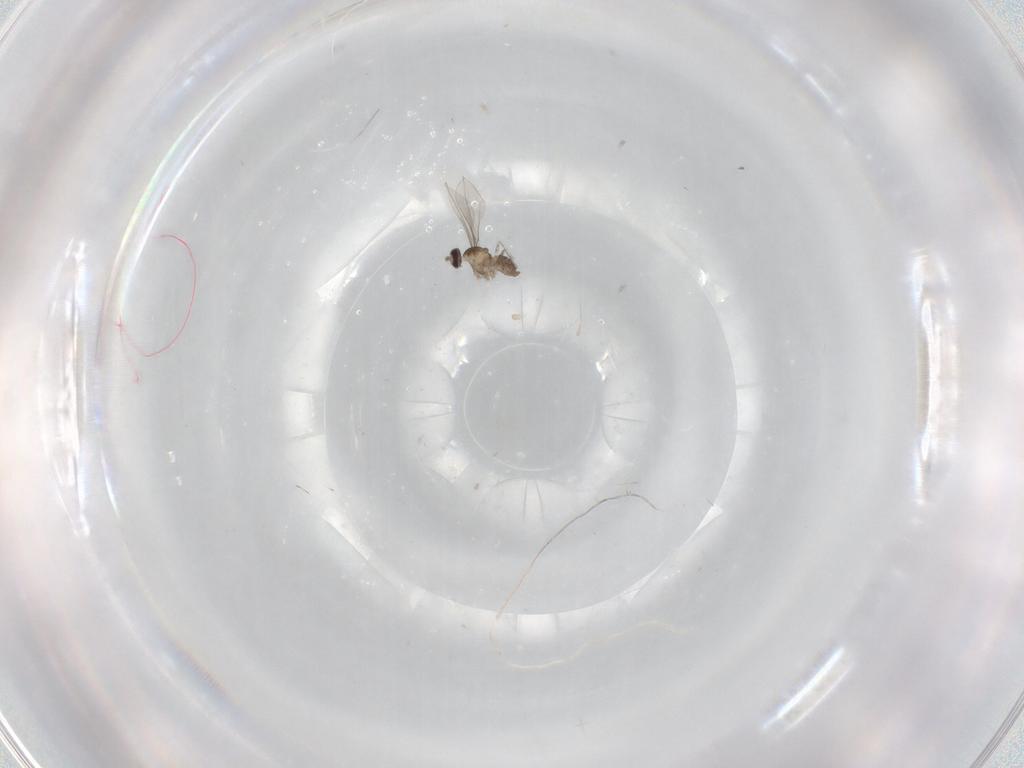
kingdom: Animalia
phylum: Arthropoda
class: Insecta
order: Diptera
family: Cecidomyiidae
